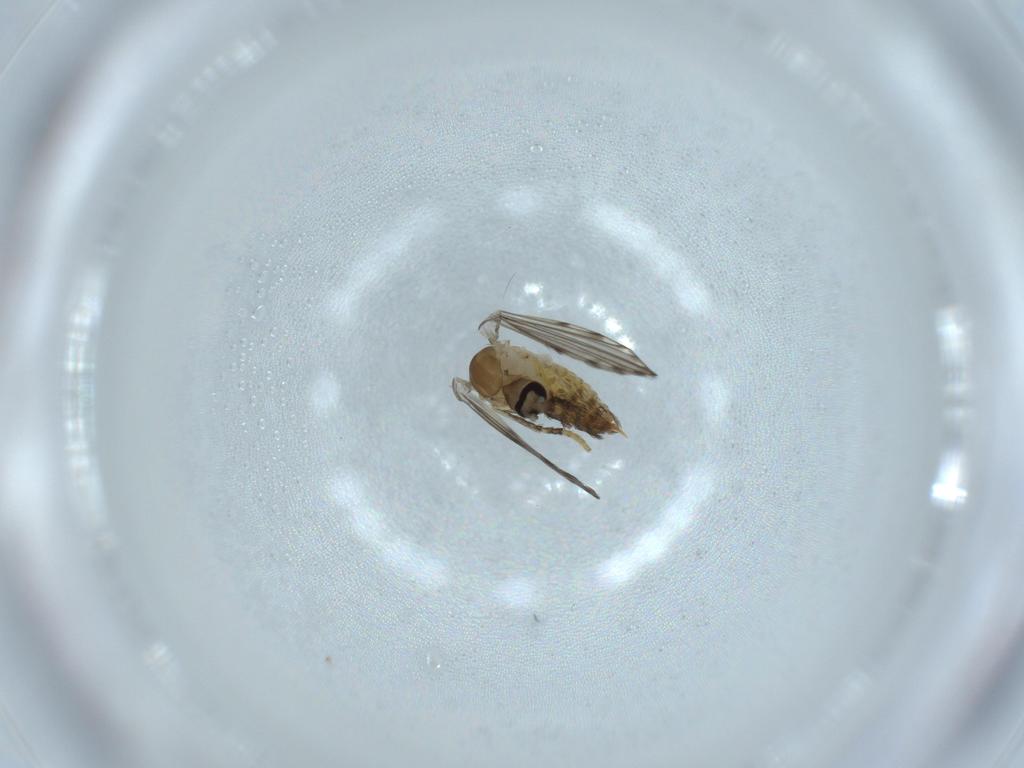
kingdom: Animalia
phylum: Arthropoda
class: Insecta
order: Diptera
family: Psychodidae
